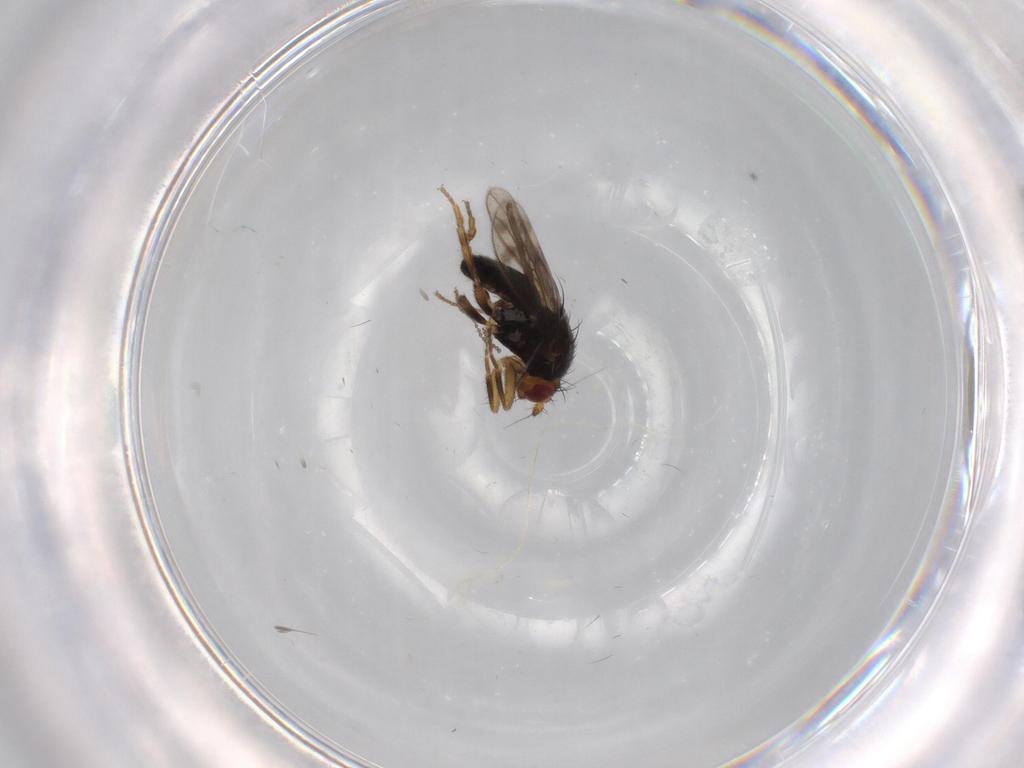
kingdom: Animalia
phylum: Arthropoda
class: Insecta
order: Diptera
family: Sphaeroceridae
